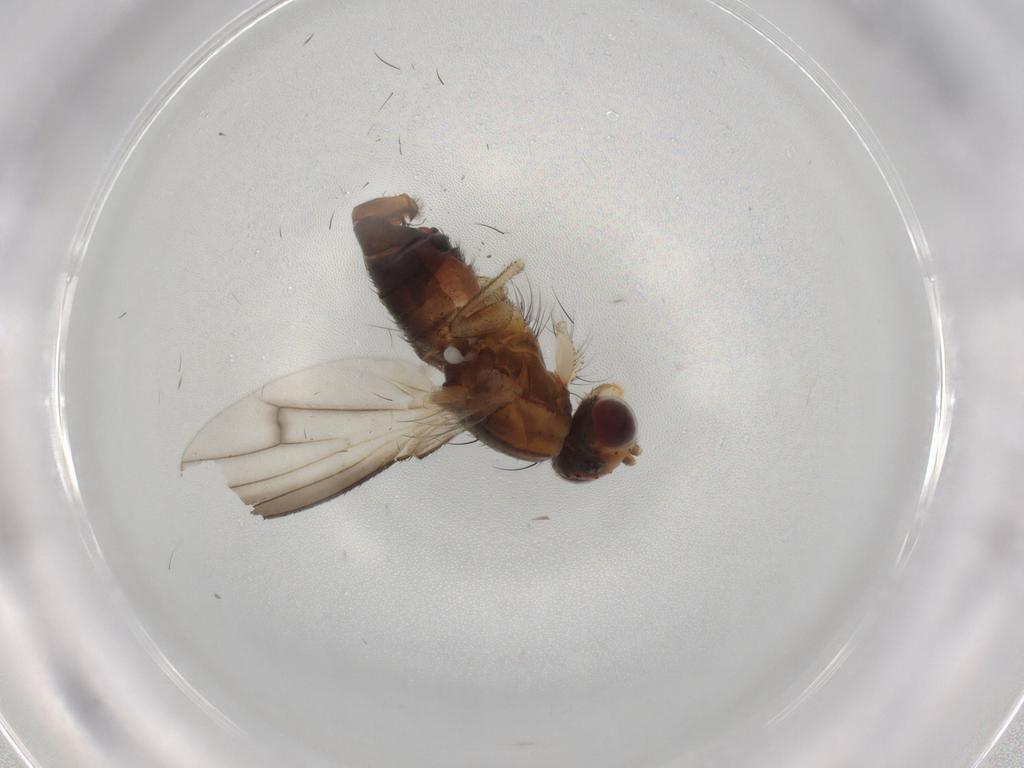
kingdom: Animalia
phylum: Arthropoda
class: Insecta
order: Diptera
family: Heleomyzidae
